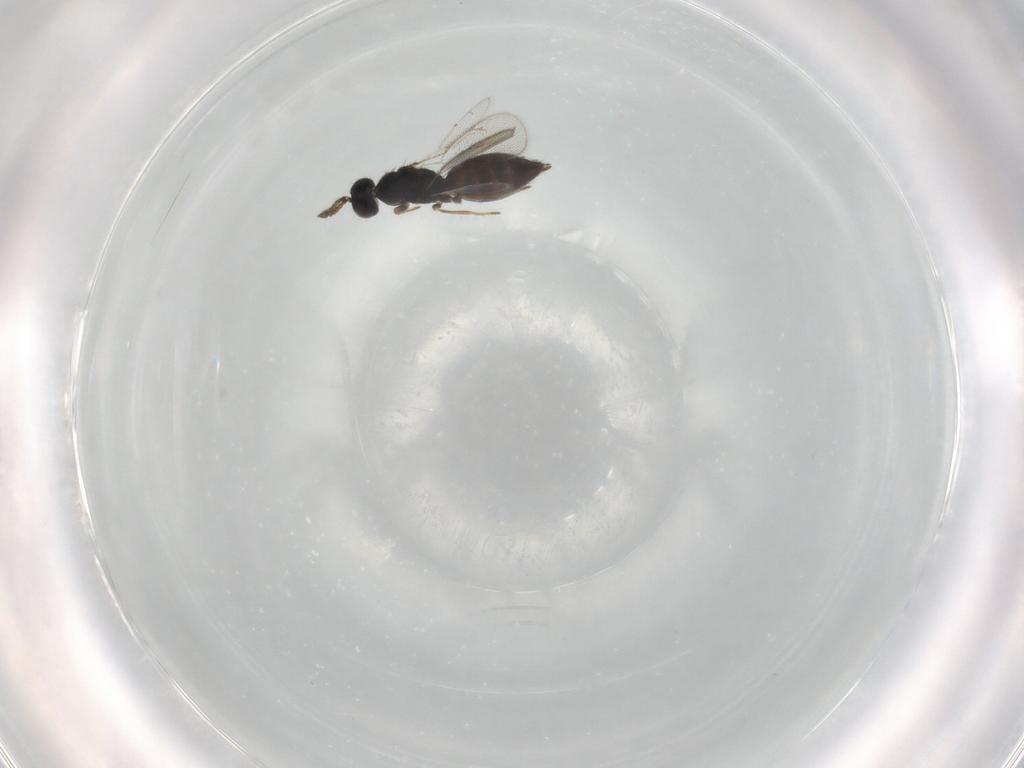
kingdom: Animalia
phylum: Arthropoda
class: Insecta
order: Hymenoptera
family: Eulophidae
